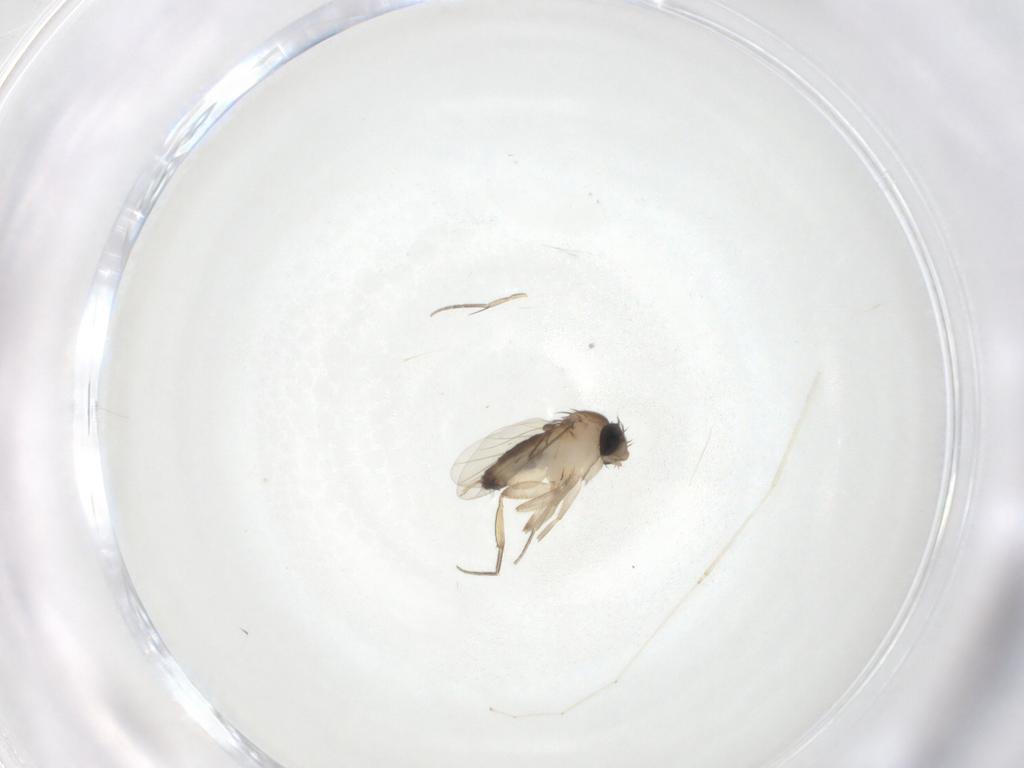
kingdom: Animalia
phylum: Arthropoda
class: Insecta
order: Diptera
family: Phoridae
